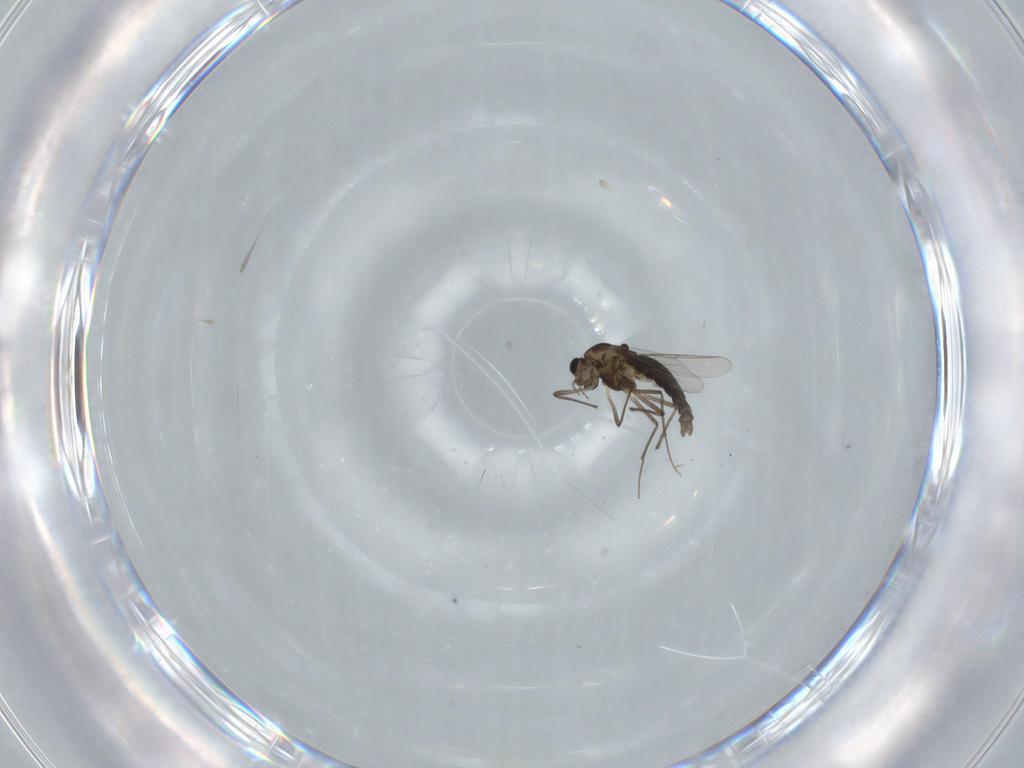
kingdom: Animalia
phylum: Arthropoda
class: Insecta
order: Diptera
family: Chironomidae
